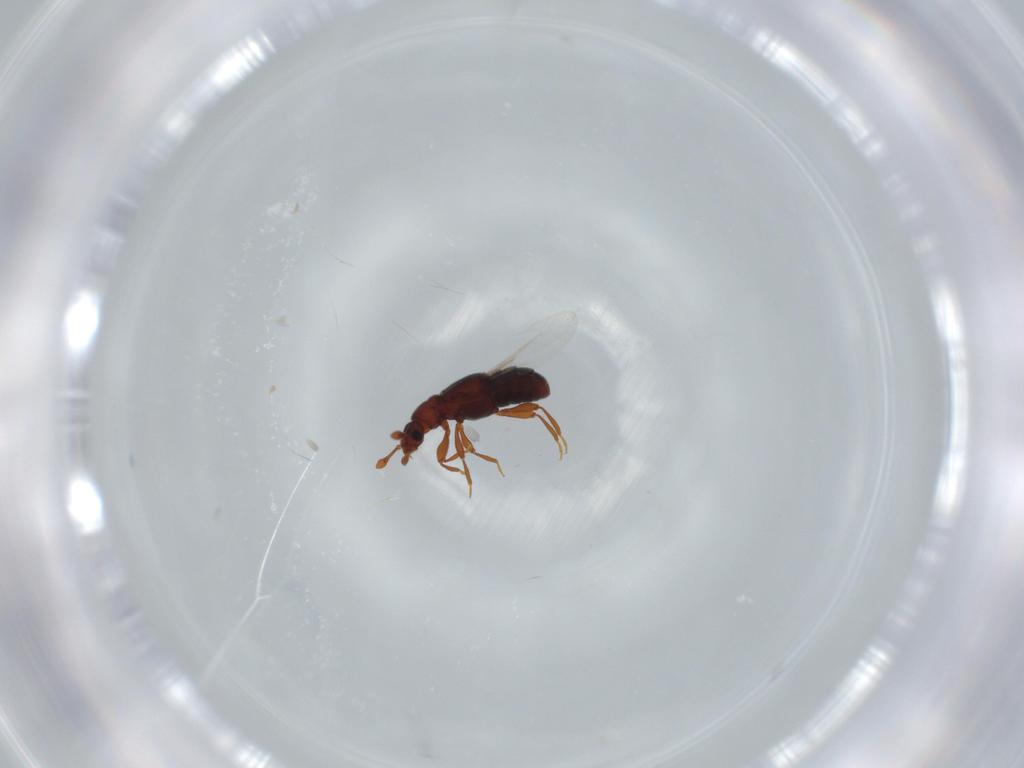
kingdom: Animalia
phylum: Arthropoda
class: Insecta
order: Coleoptera
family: Staphylinidae
